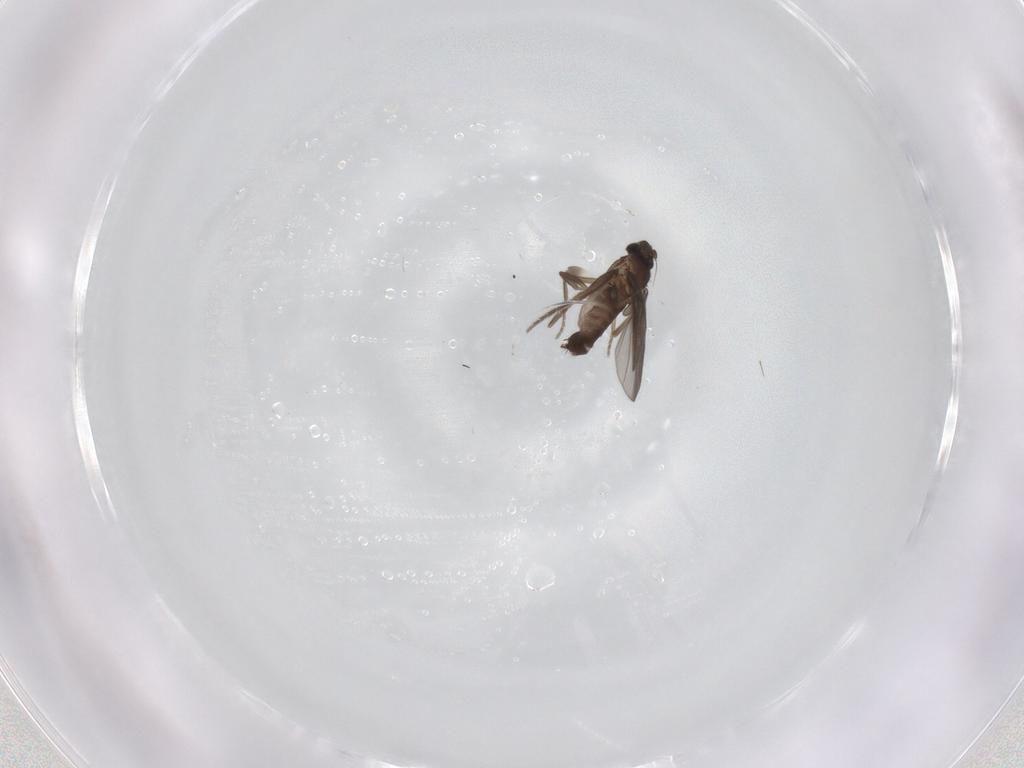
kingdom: Animalia
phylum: Arthropoda
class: Insecta
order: Diptera
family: Phoridae
